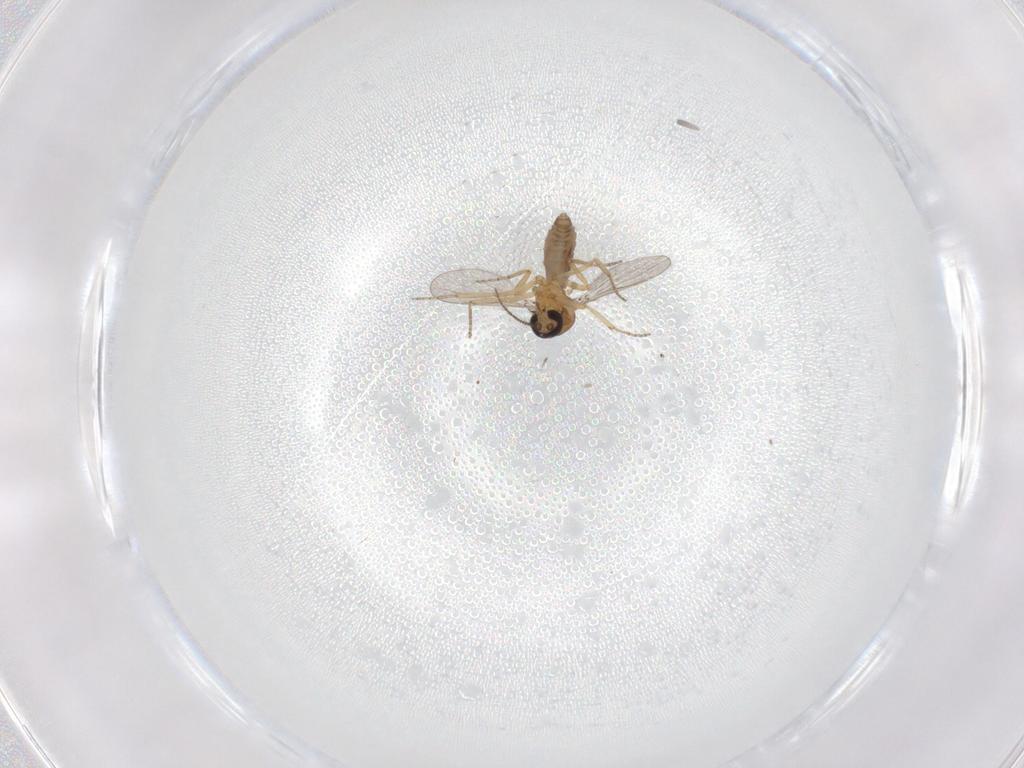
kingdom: Animalia
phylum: Arthropoda
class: Insecta
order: Diptera
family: Ceratopogonidae
